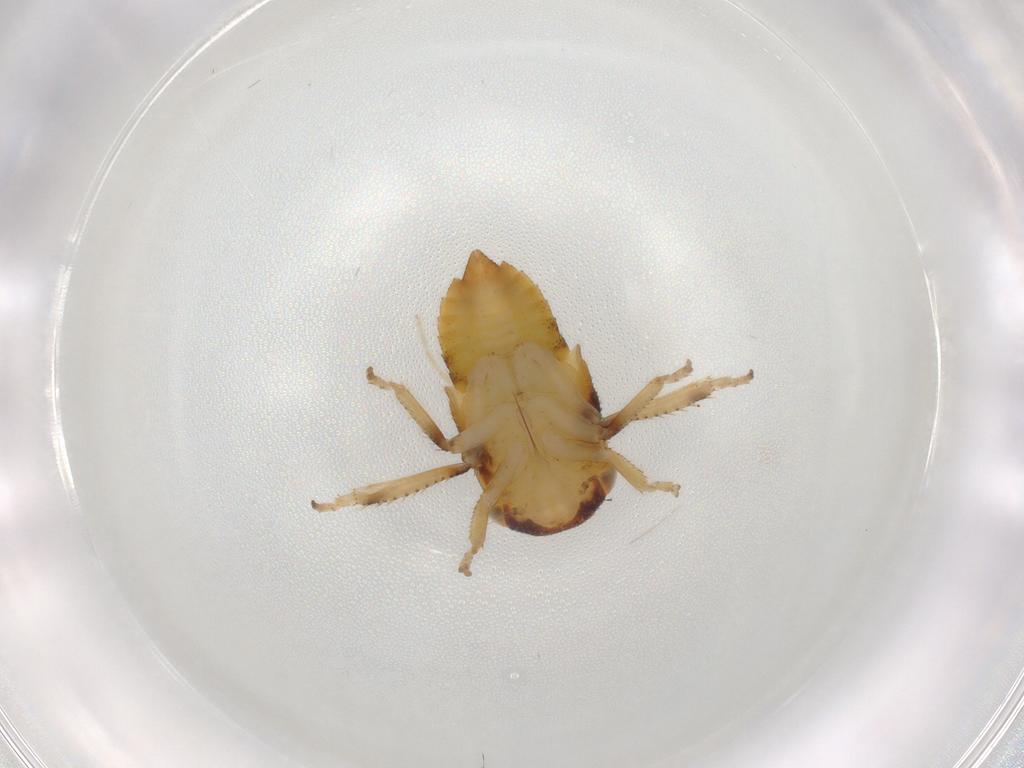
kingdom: Animalia
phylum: Arthropoda
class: Insecta
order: Hemiptera
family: Cicadellidae
